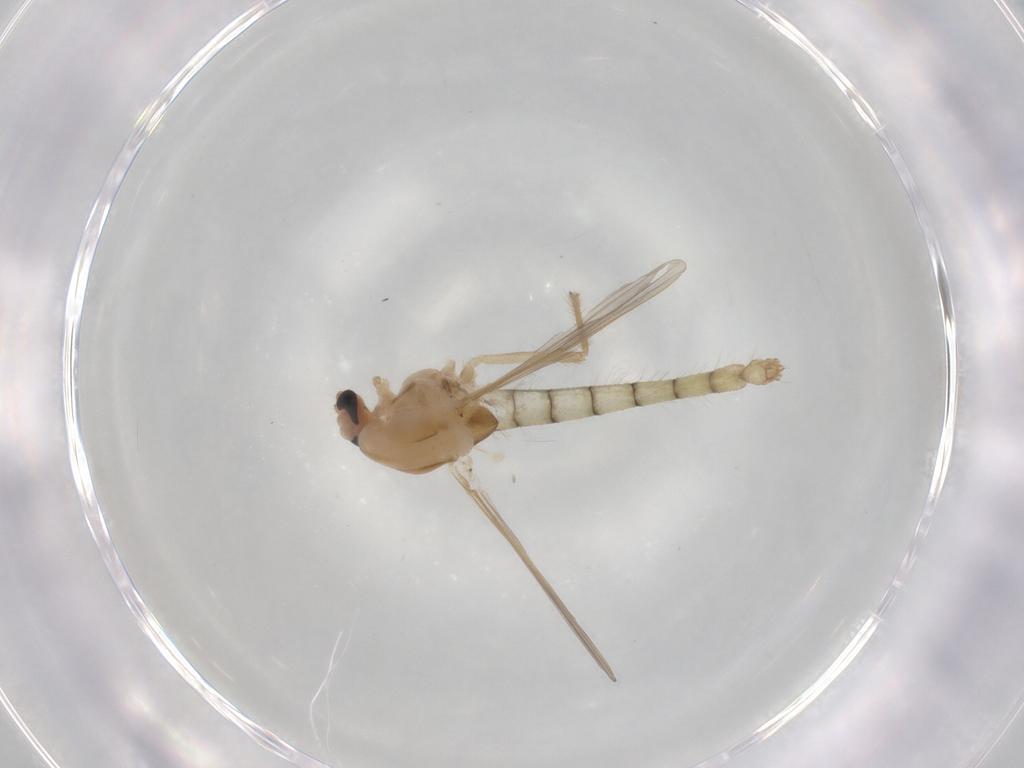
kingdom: Animalia
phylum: Arthropoda
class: Insecta
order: Diptera
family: Chironomidae
